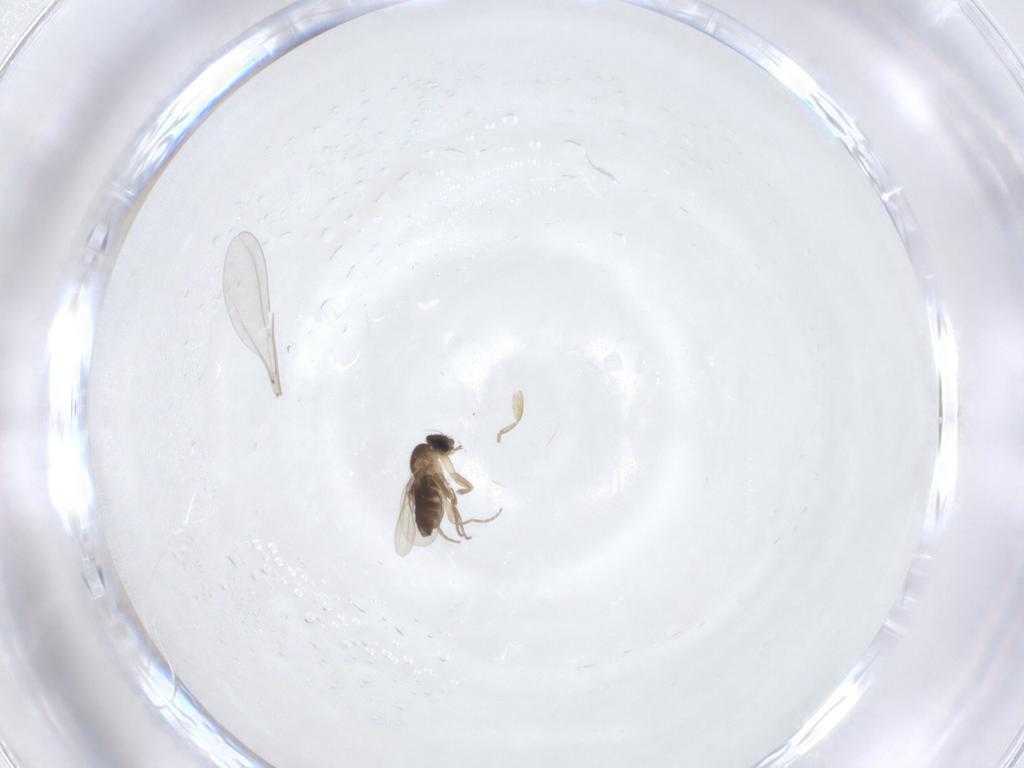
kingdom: Animalia
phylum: Arthropoda
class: Insecta
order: Diptera
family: Phoridae
